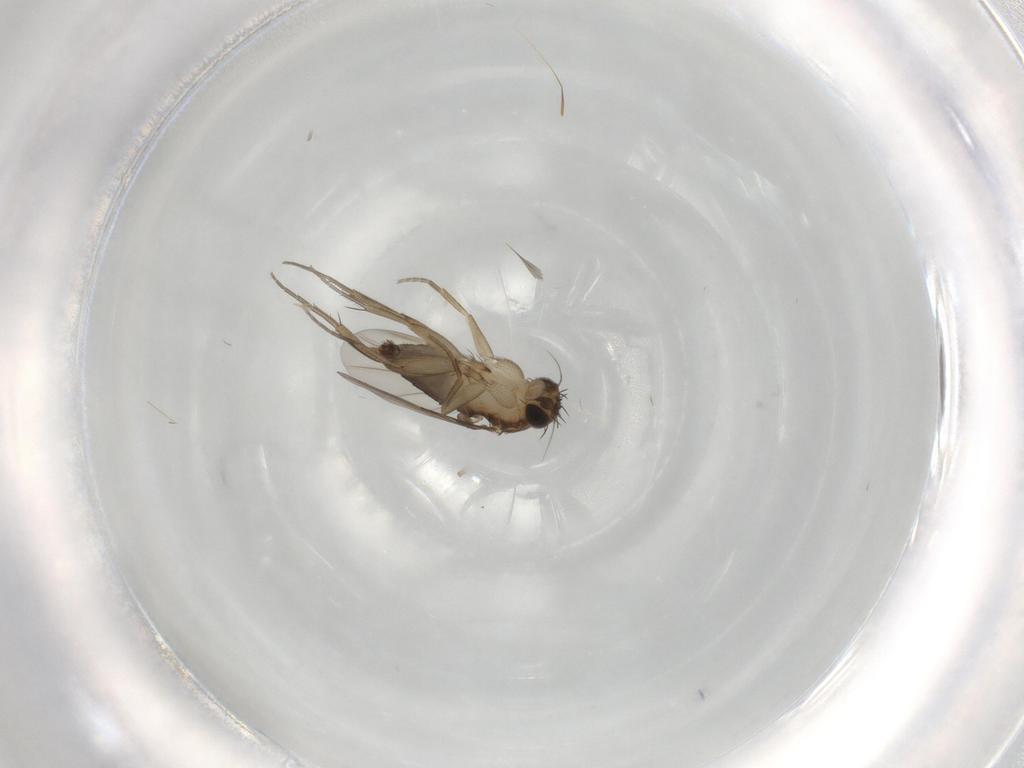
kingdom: Animalia
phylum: Arthropoda
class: Insecta
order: Diptera
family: Phoridae
